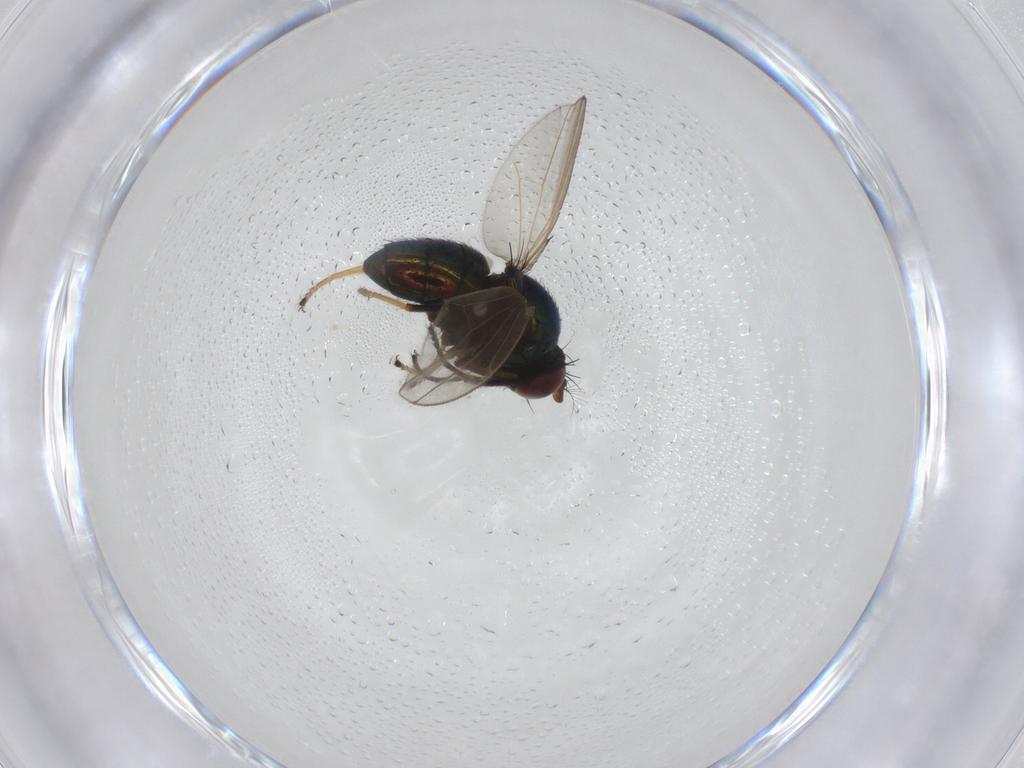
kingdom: Animalia
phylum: Arthropoda
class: Insecta
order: Diptera
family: Ephydridae
